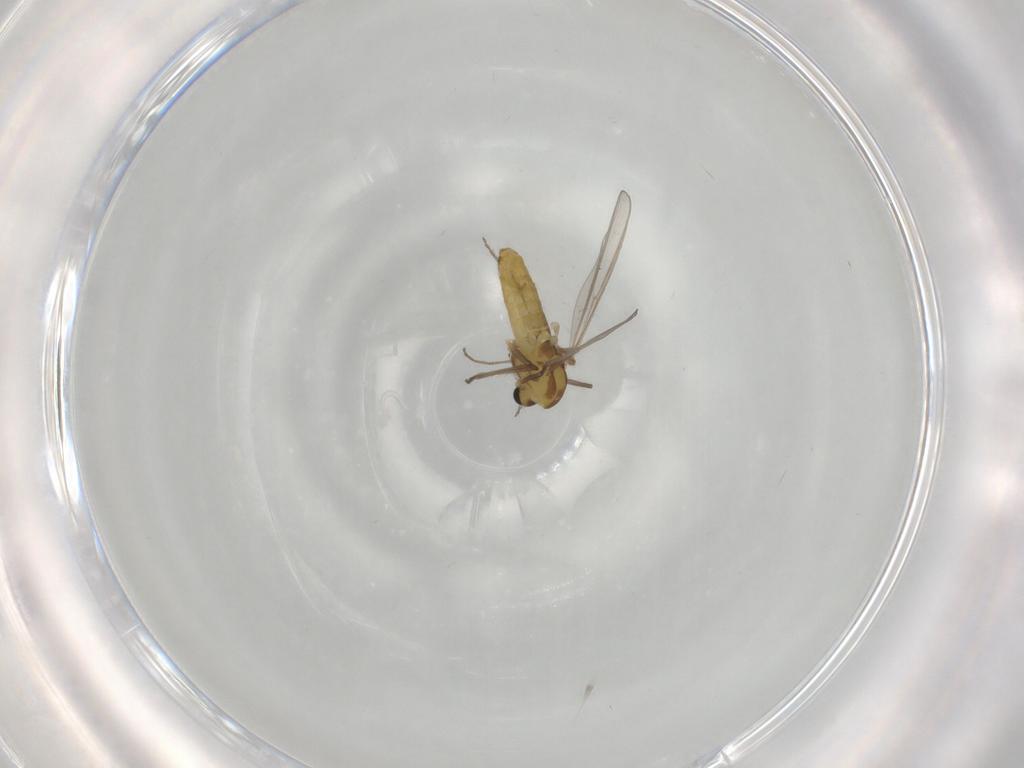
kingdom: Animalia
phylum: Arthropoda
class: Insecta
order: Diptera
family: Chironomidae
